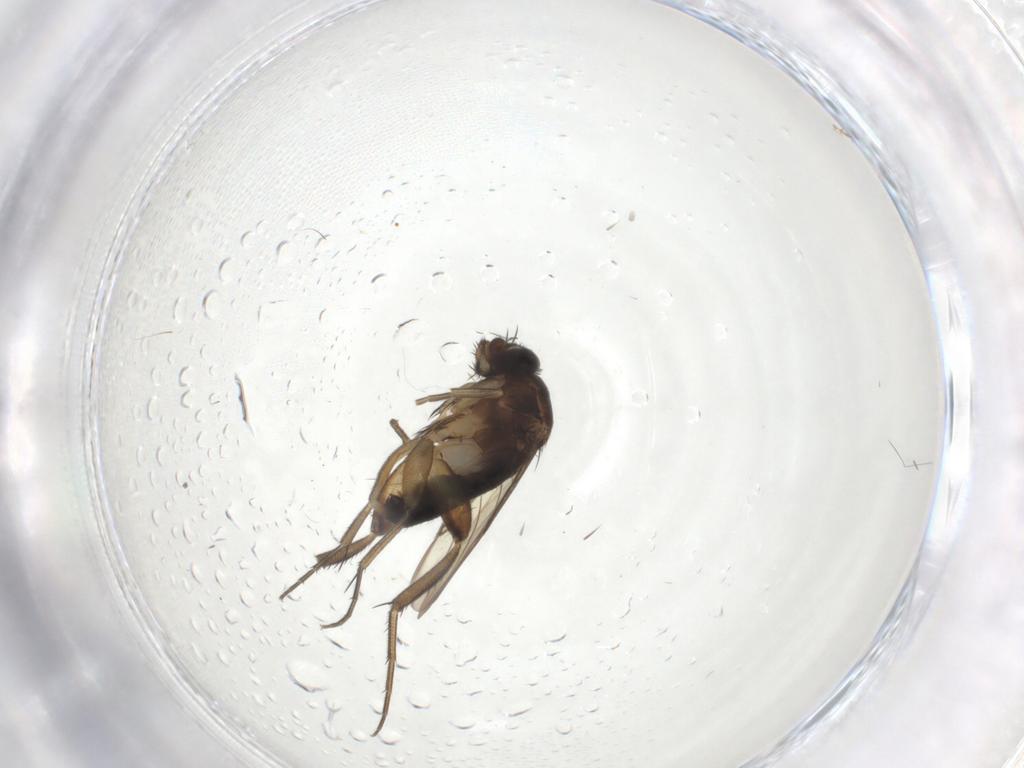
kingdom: Animalia
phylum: Arthropoda
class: Insecta
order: Diptera
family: Phoridae
